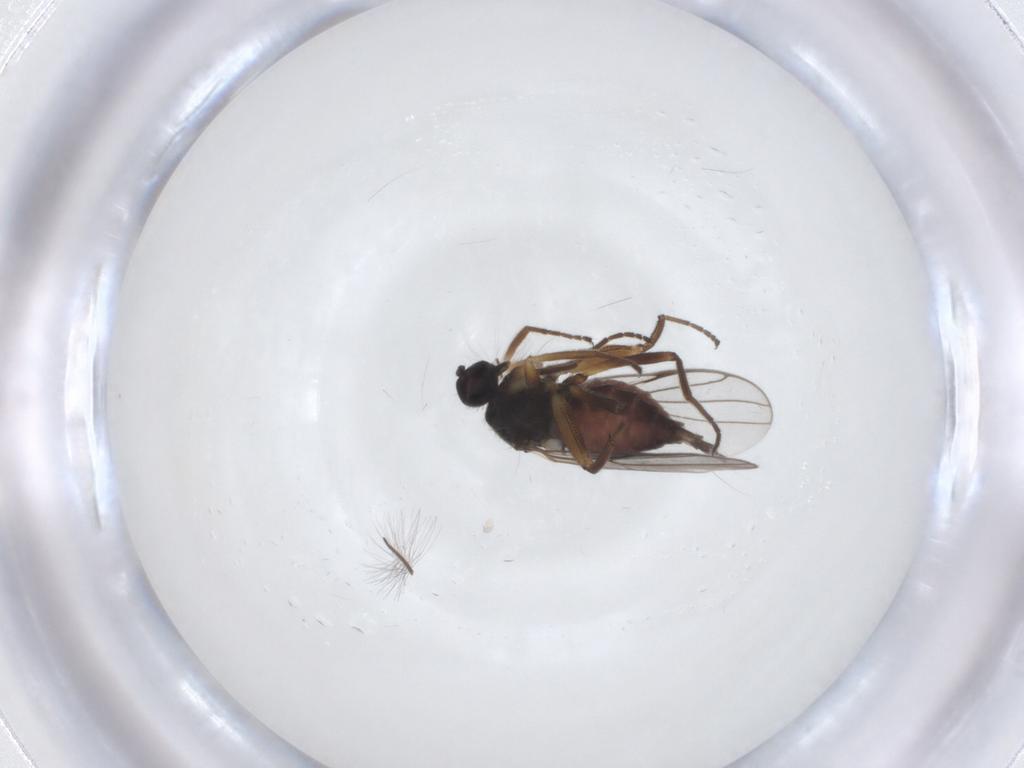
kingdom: Animalia
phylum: Arthropoda
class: Insecta
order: Diptera
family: Hybotidae
